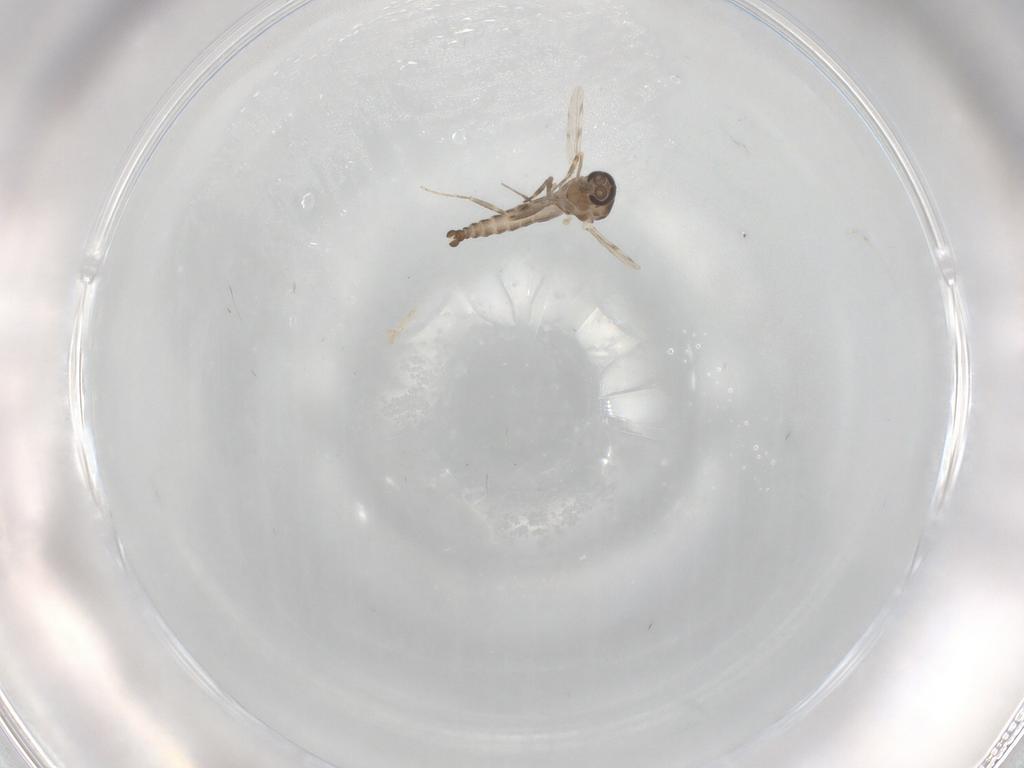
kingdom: Animalia
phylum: Arthropoda
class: Insecta
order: Diptera
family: Ceratopogonidae
